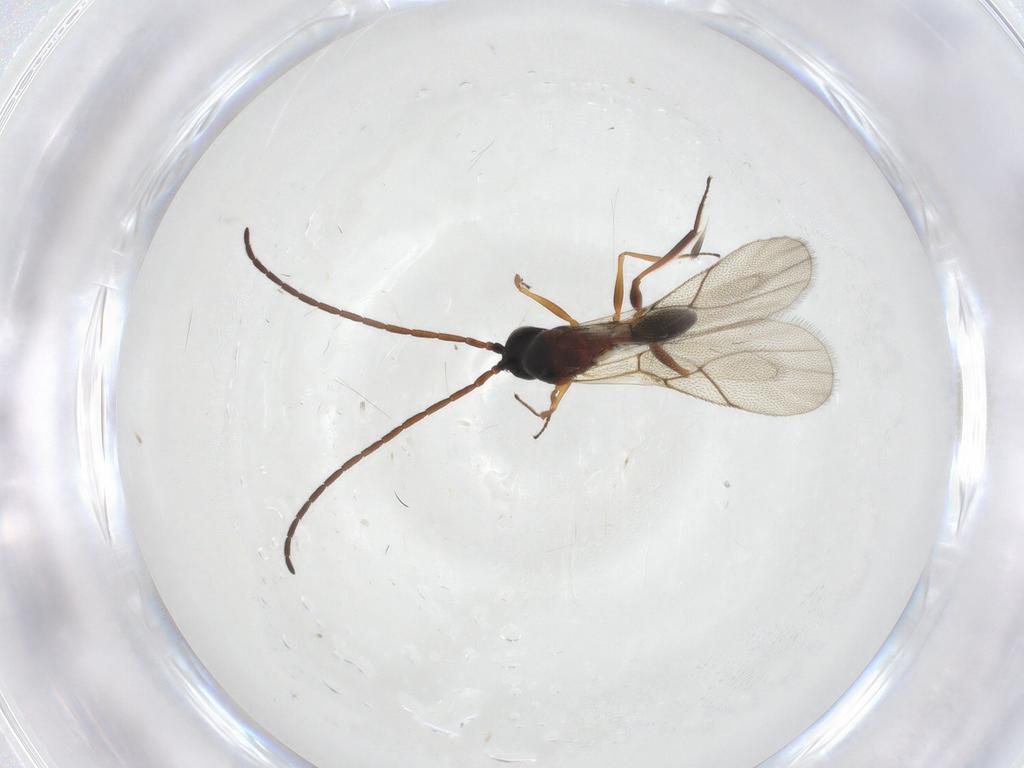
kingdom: Animalia
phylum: Arthropoda
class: Insecta
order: Hymenoptera
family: Figitidae
